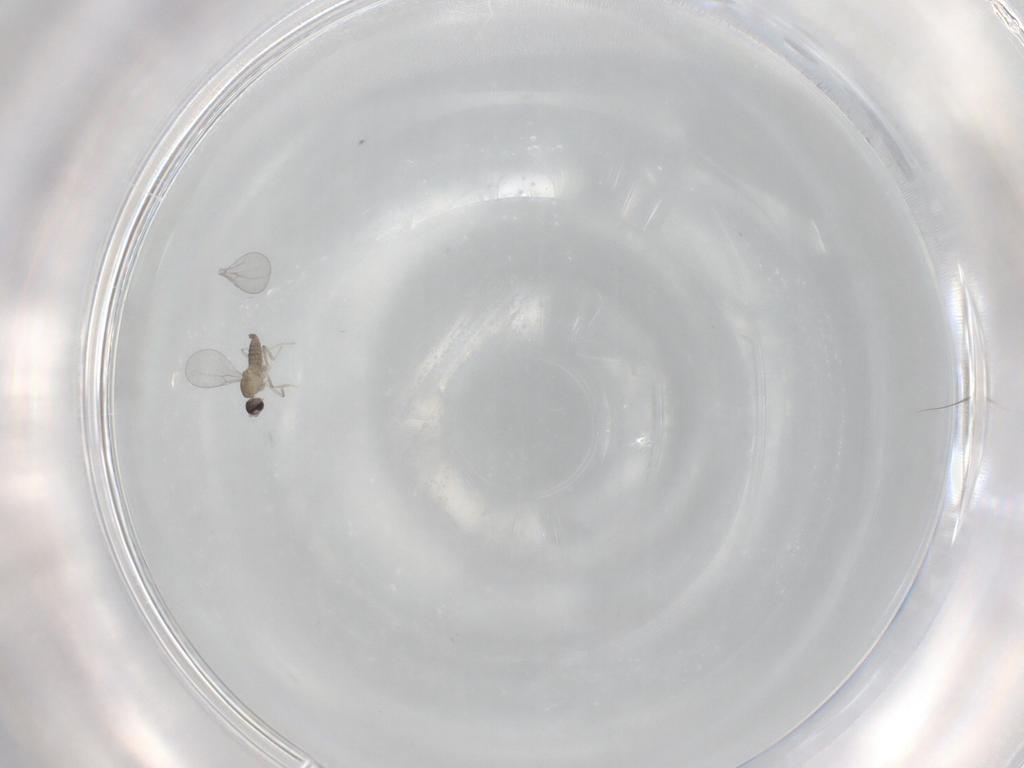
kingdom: Animalia
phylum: Arthropoda
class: Insecta
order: Diptera
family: Cecidomyiidae
